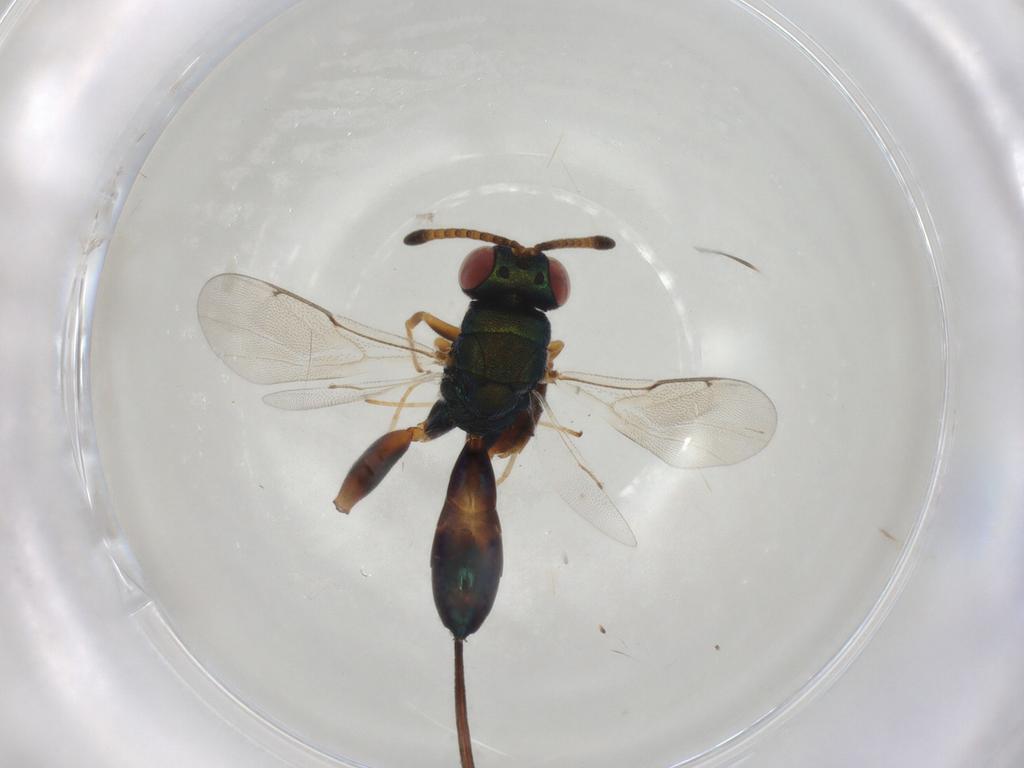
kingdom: Animalia
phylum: Arthropoda
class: Insecta
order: Hymenoptera
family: Torymidae
